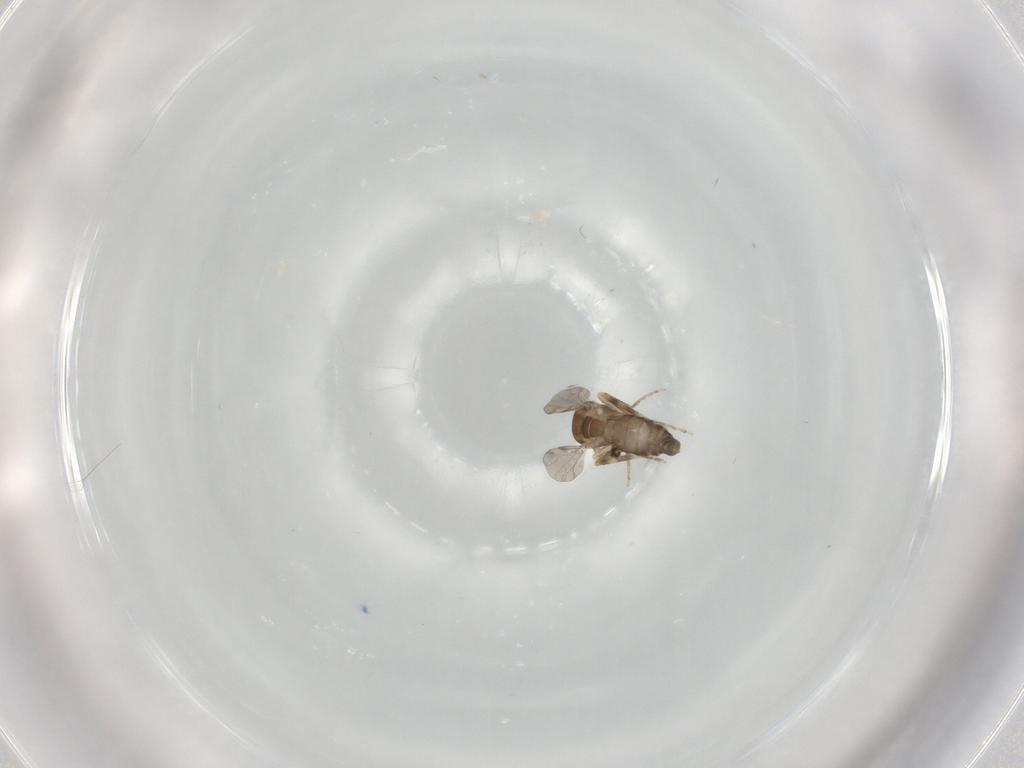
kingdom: Animalia
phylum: Arthropoda
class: Insecta
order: Diptera
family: Ceratopogonidae
